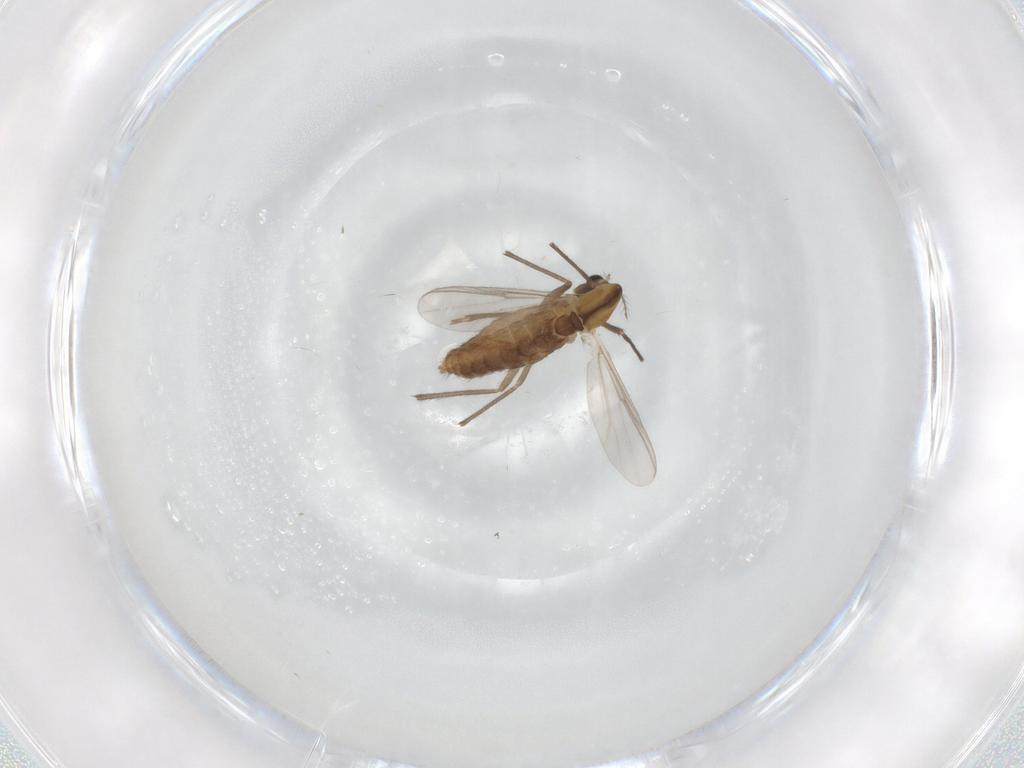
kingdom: Animalia
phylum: Arthropoda
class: Insecta
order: Diptera
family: Chironomidae
